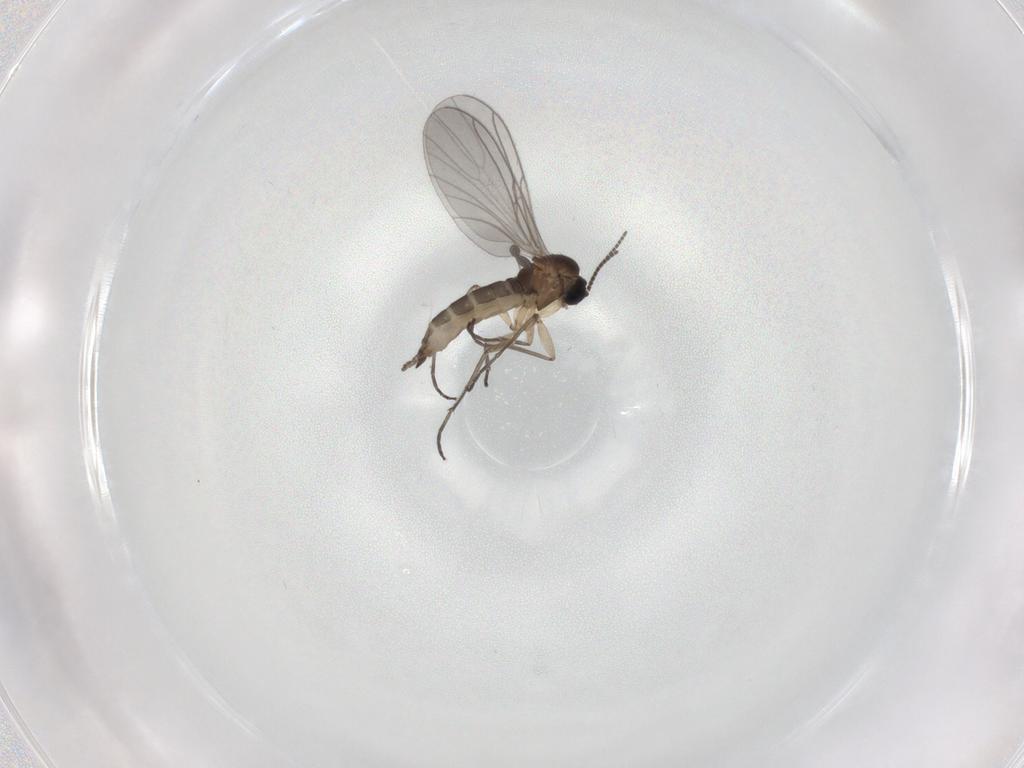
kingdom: Animalia
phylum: Arthropoda
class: Insecta
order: Diptera
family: Sciaridae
